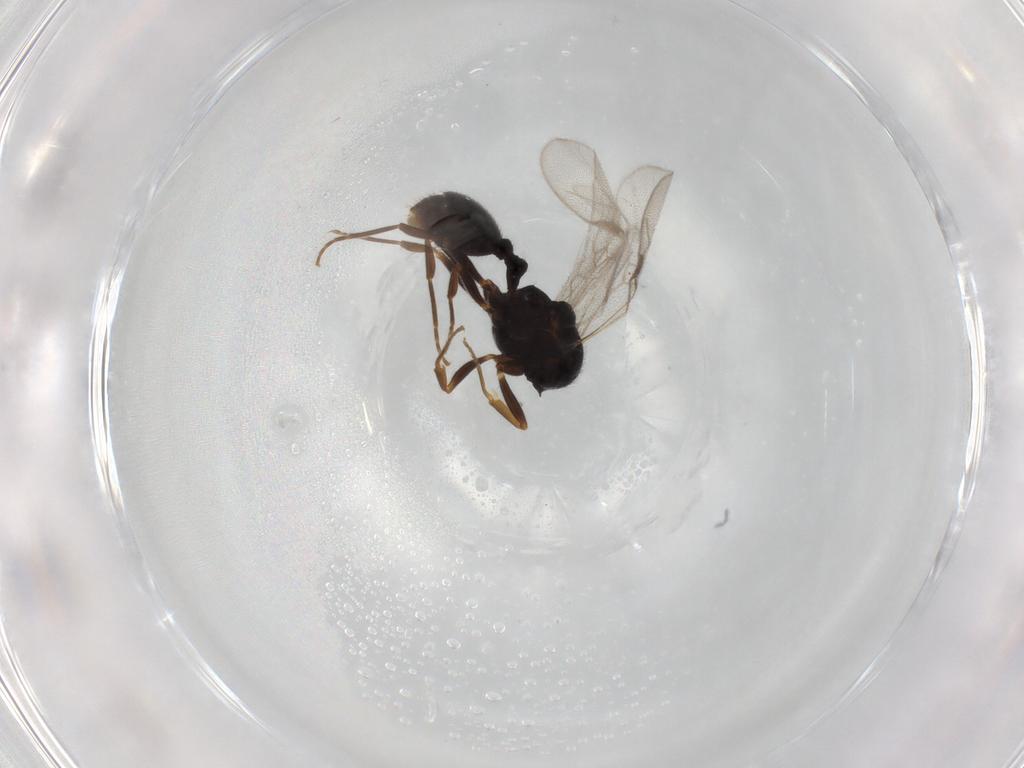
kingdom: Animalia
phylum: Arthropoda
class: Insecta
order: Hymenoptera
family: Formicidae
